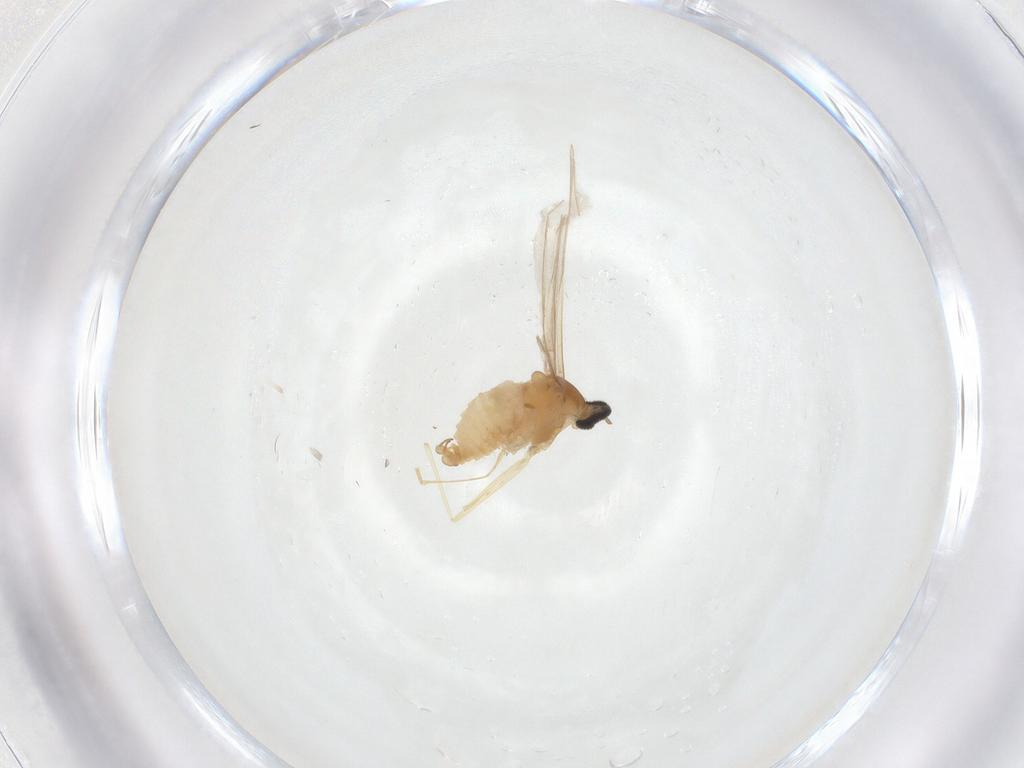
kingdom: Animalia
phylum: Arthropoda
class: Insecta
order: Diptera
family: Cecidomyiidae
